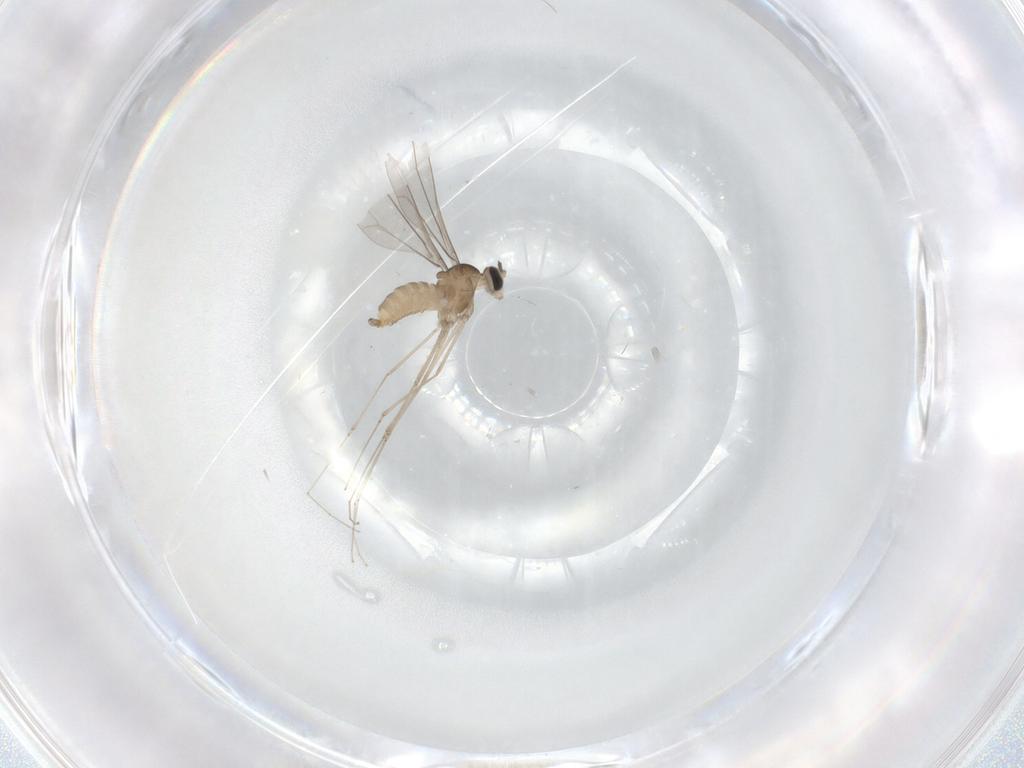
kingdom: Animalia
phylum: Arthropoda
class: Insecta
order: Diptera
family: Cecidomyiidae
